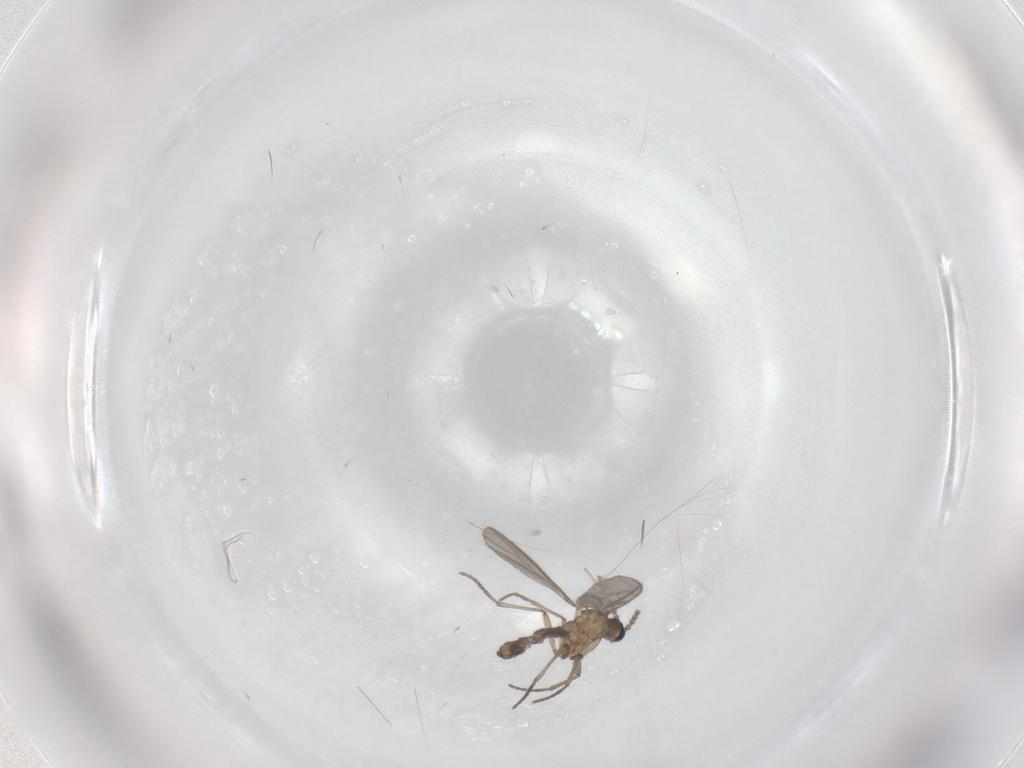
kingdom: Animalia
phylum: Arthropoda
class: Insecta
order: Diptera
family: Sciaridae
